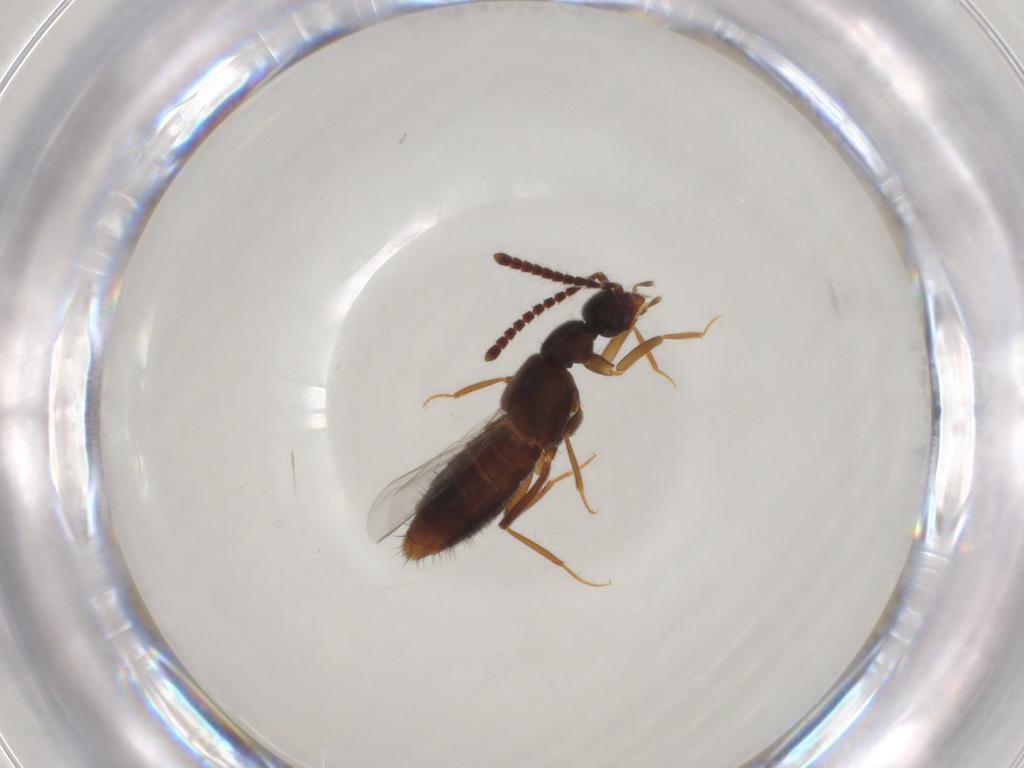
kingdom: Animalia
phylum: Arthropoda
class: Insecta
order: Coleoptera
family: Staphylinidae
